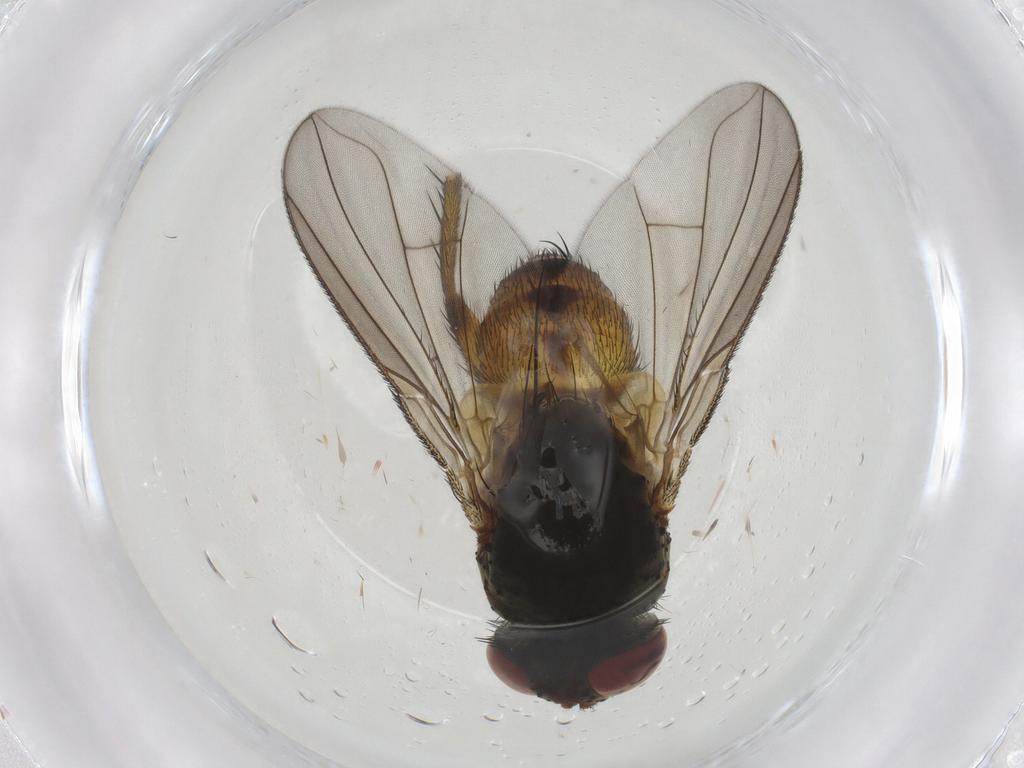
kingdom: Animalia
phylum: Arthropoda
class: Insecta
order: Diptera
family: Tachinidae
